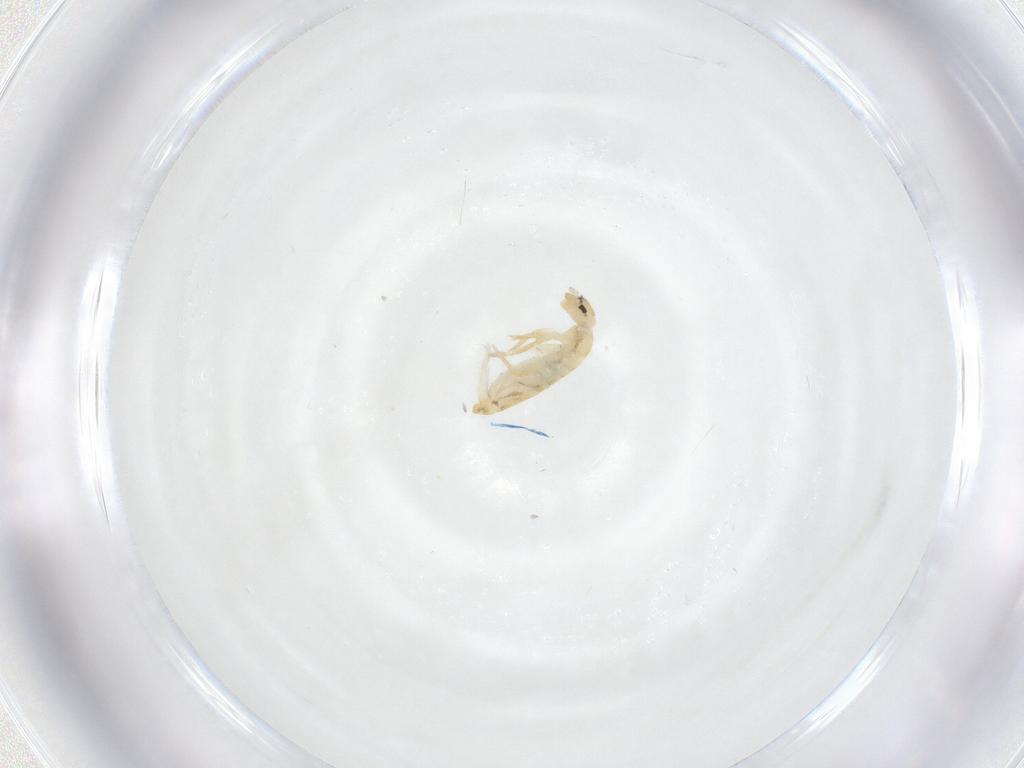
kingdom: Animalia
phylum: Arthropoda
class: Collembola
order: Entomobryomorpha
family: Entomobryidae
